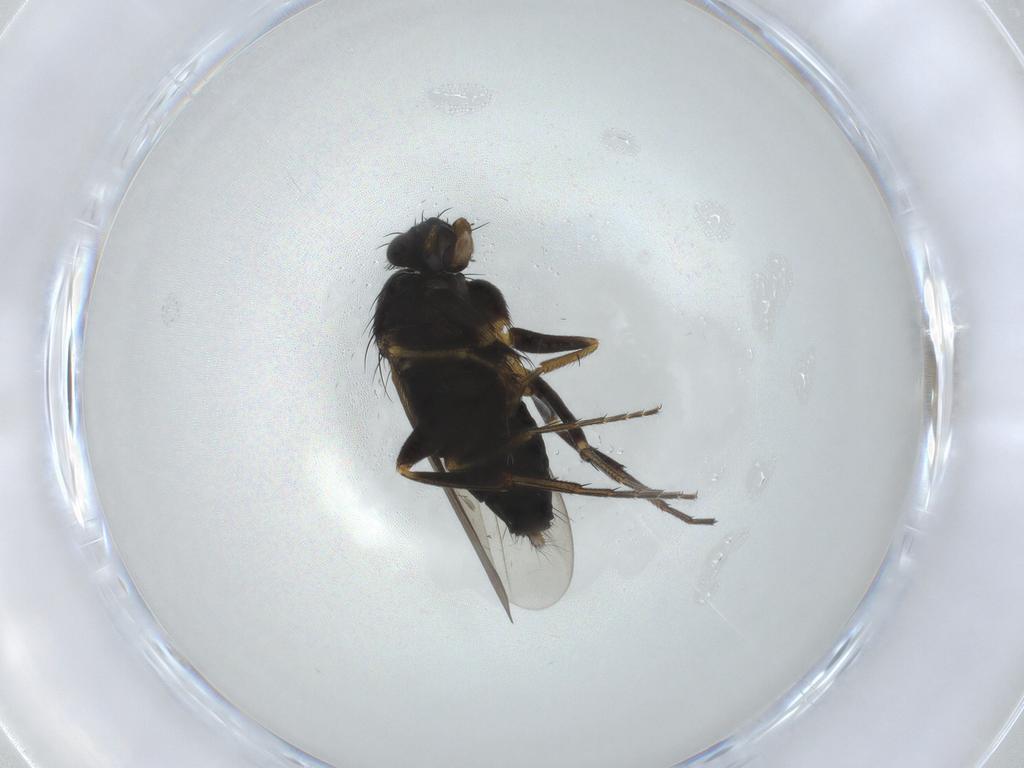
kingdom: Animalia
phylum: Arthropoda
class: Insecta
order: Diptera
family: Phoridae
